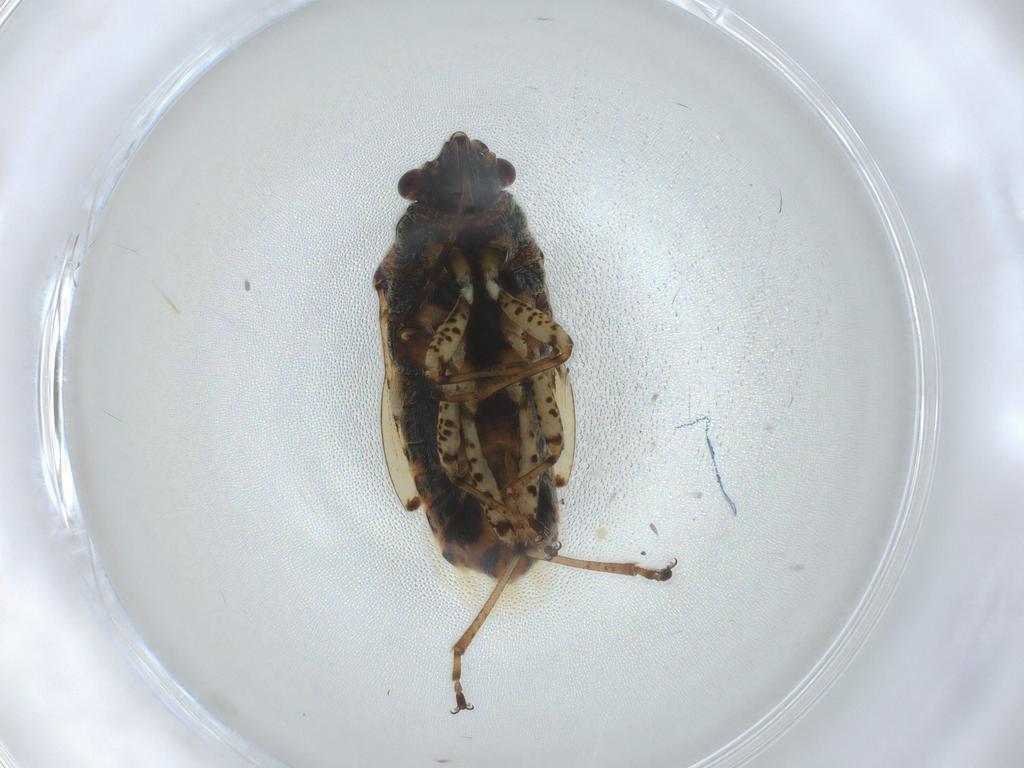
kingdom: Animalia
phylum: Arthropoda
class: Insecta
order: Hemiptera
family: Lygaeidae
